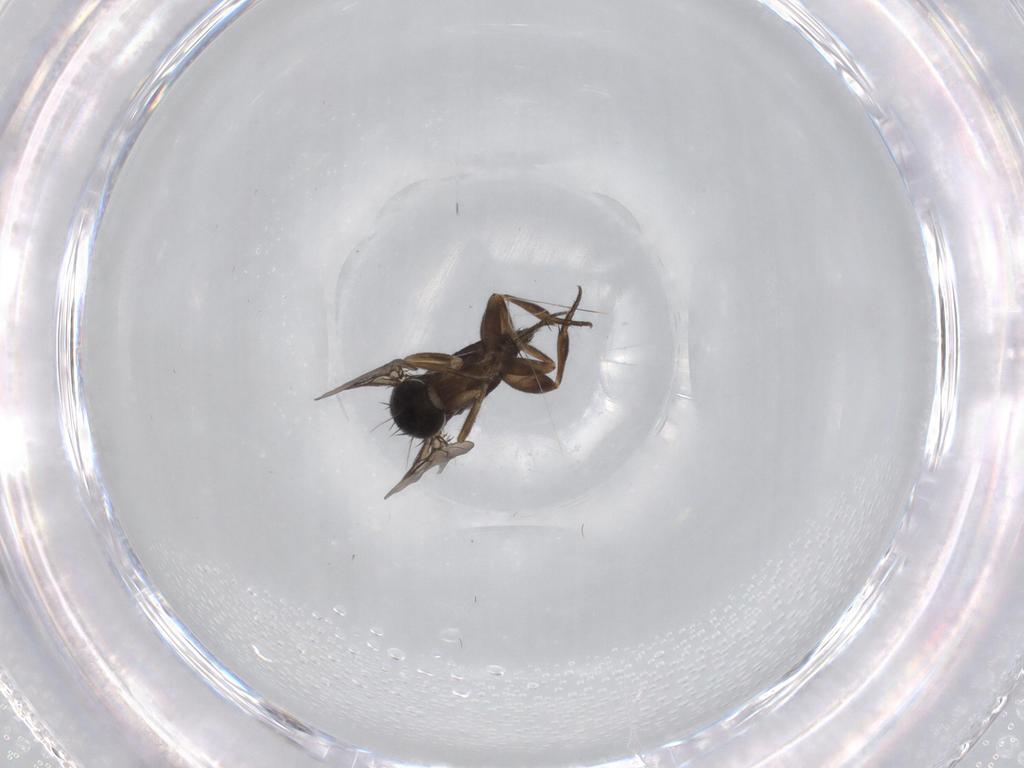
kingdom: Animalia
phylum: Arthropoda
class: Insecta
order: Diptera
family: Phoridae
